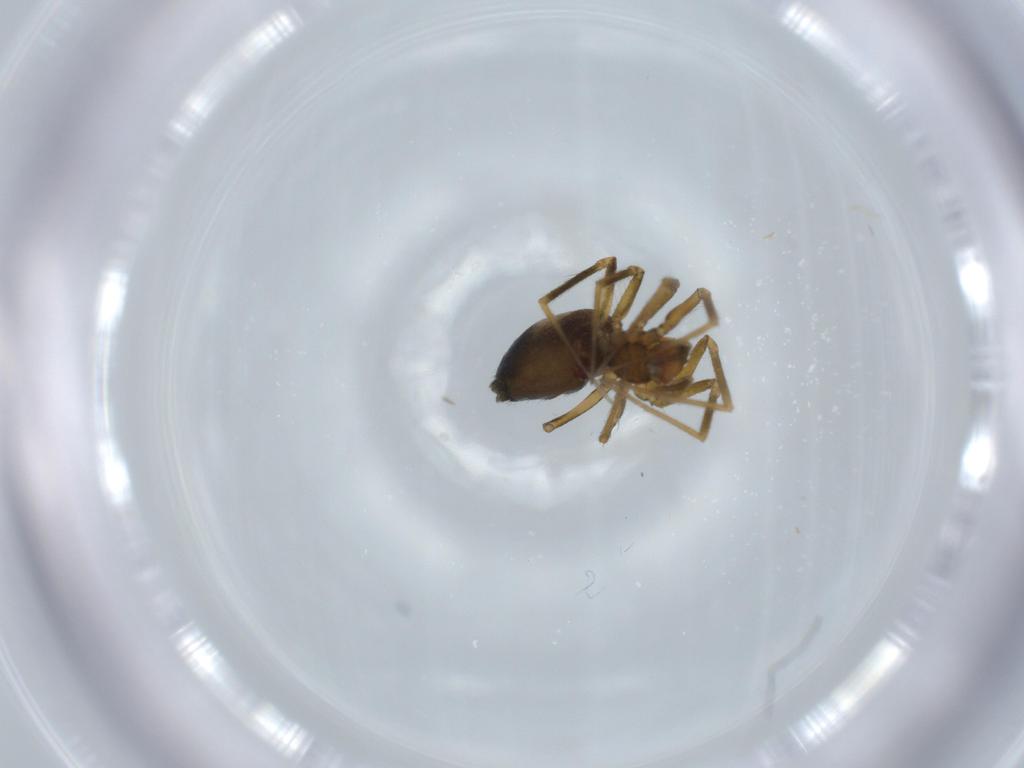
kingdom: Animalia
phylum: Arthropoda
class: Arachnida
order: Araneae
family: Linyphiidae
